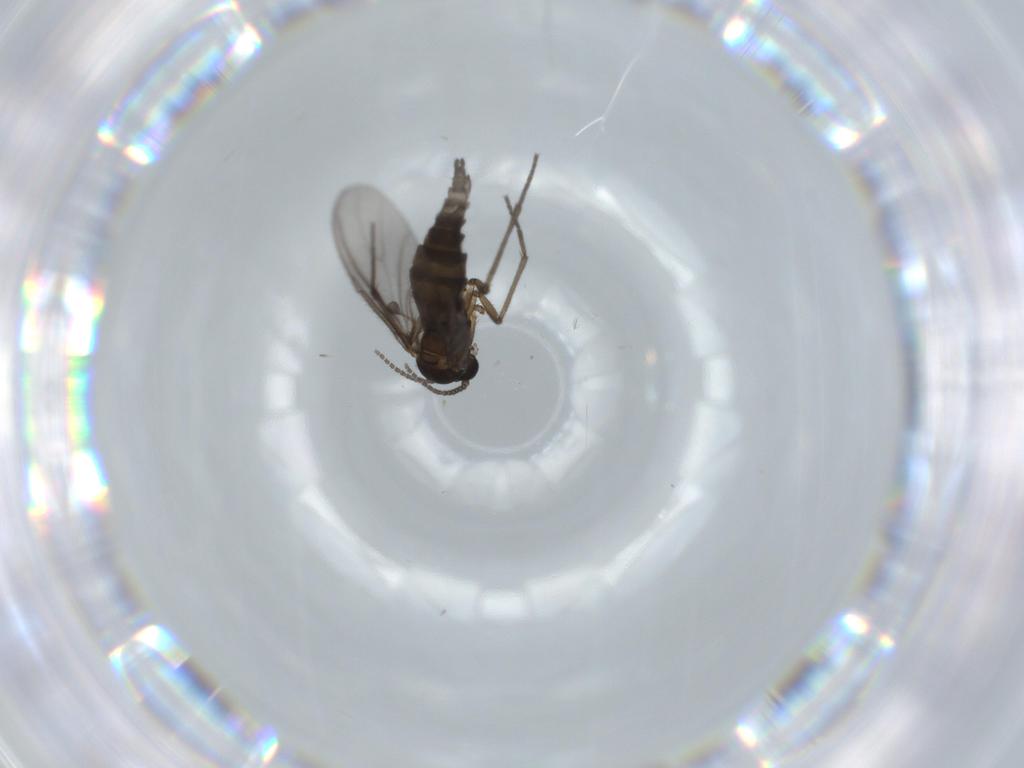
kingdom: Animalia
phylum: Arthropoda
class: Insecta
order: Diptera
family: Sciaridae
